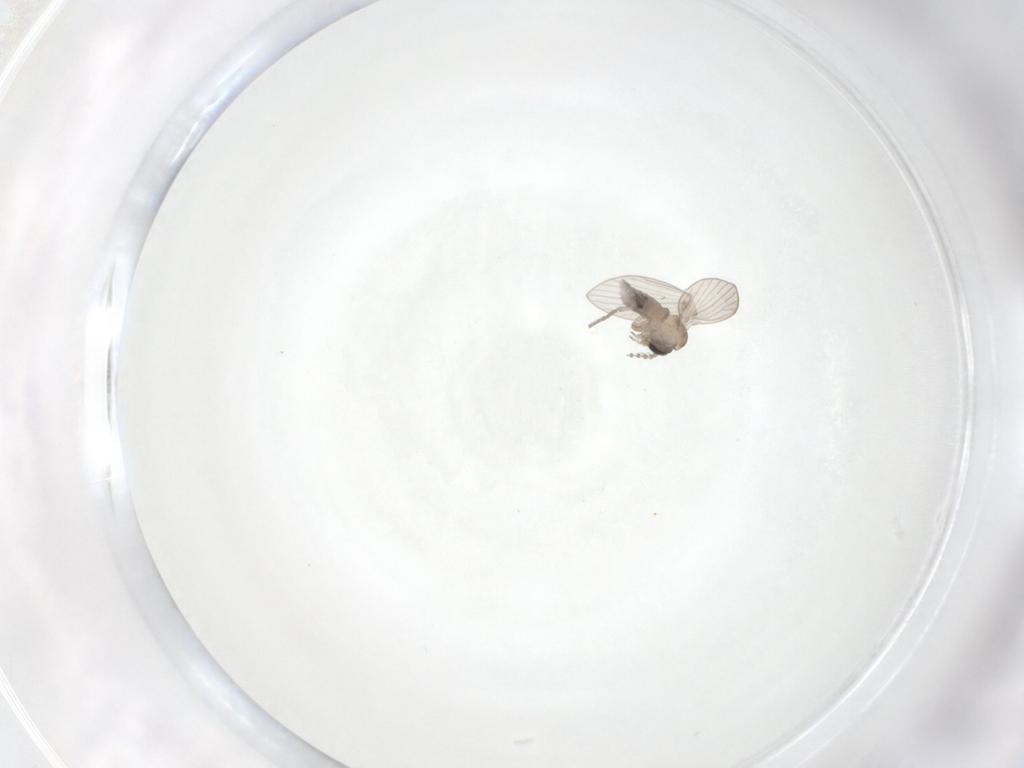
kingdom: Animalia
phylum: Arthropoda
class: Insecta
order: Diptera
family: Psychodidae
